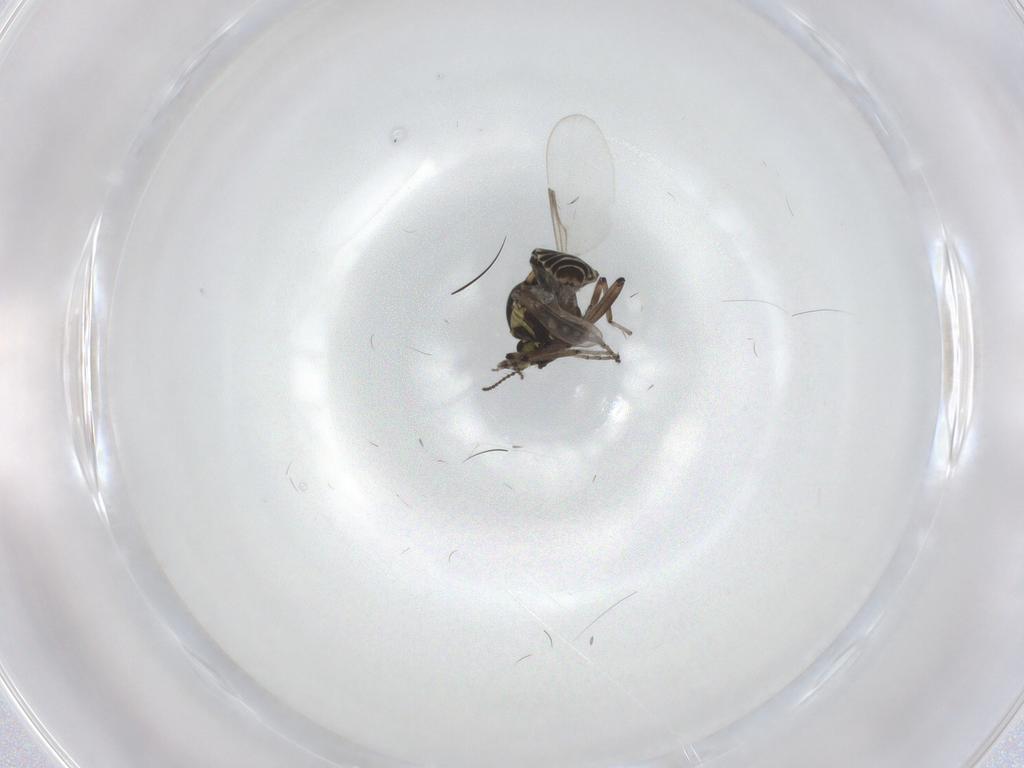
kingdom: Animalia
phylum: Arthropoda
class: Insecta
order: Diptera
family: Ceratopogonidae
